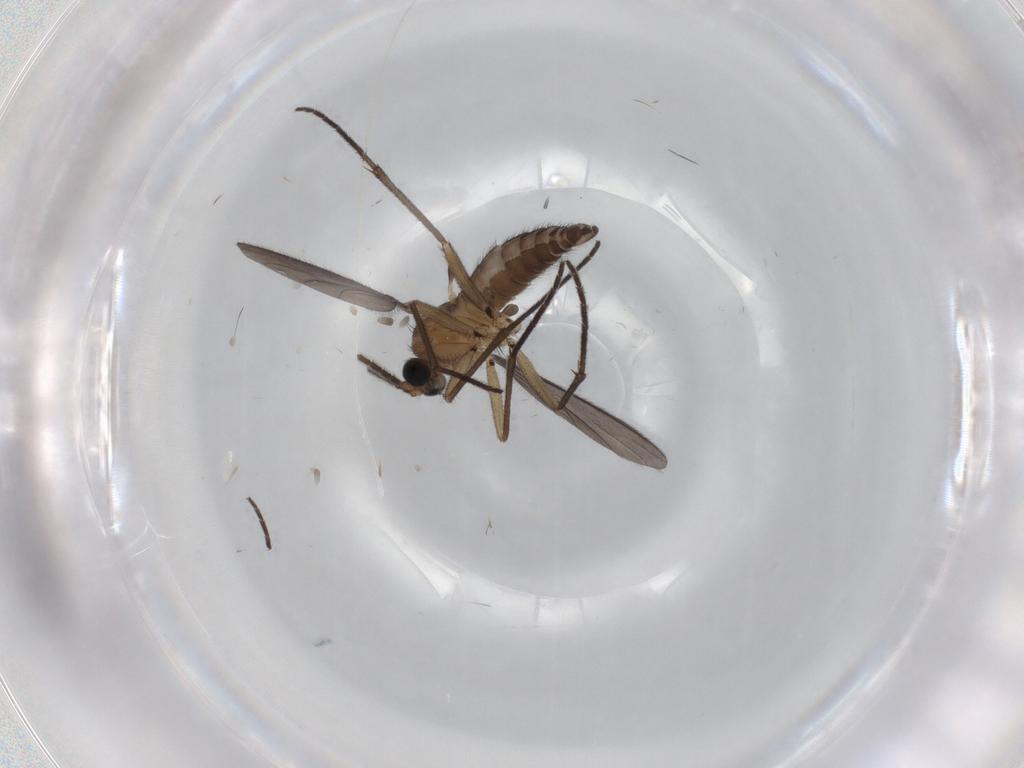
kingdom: Animalia
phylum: Arthropoda
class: Insecta
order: Diptera
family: Sciaridae
